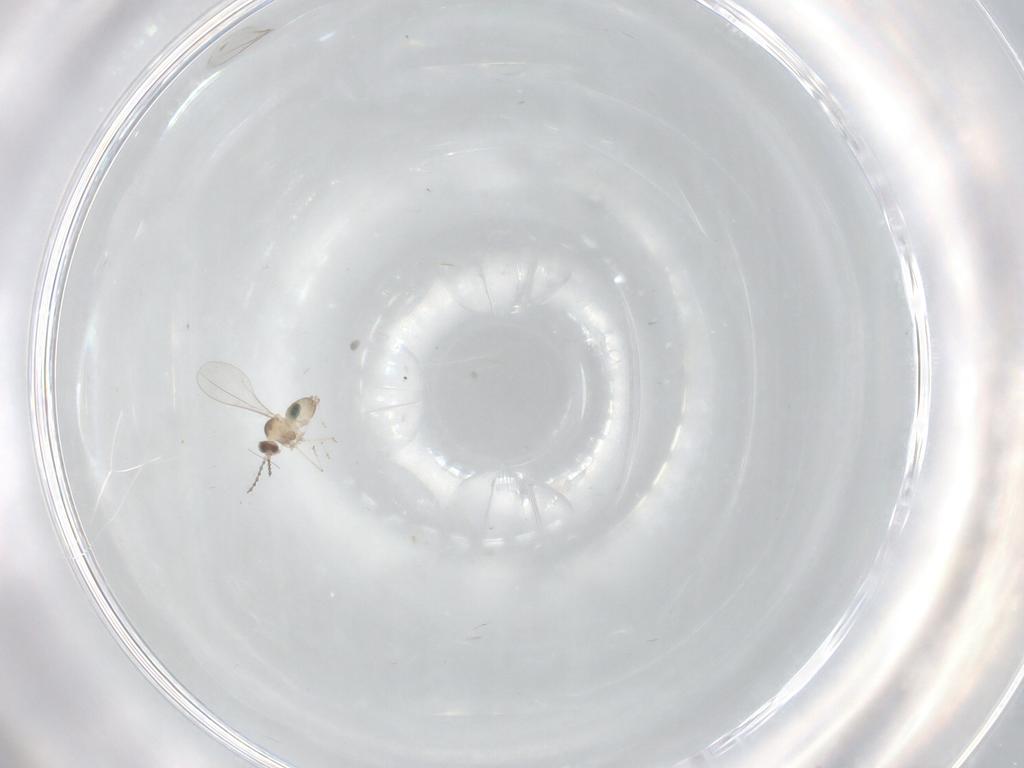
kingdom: Animalia
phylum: Arthropoda
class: Insecta
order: Diptera
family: Cecidomyiidae
